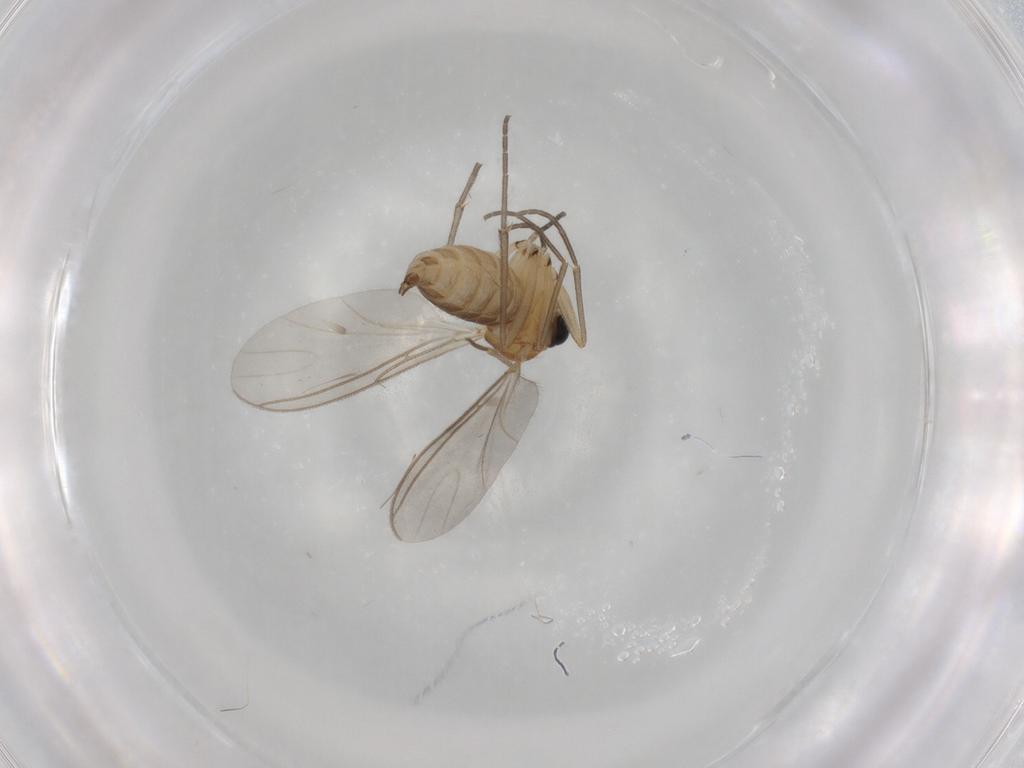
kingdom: Animalia
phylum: Arthropoda
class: Insecta
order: Diptera
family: Sciaridae
